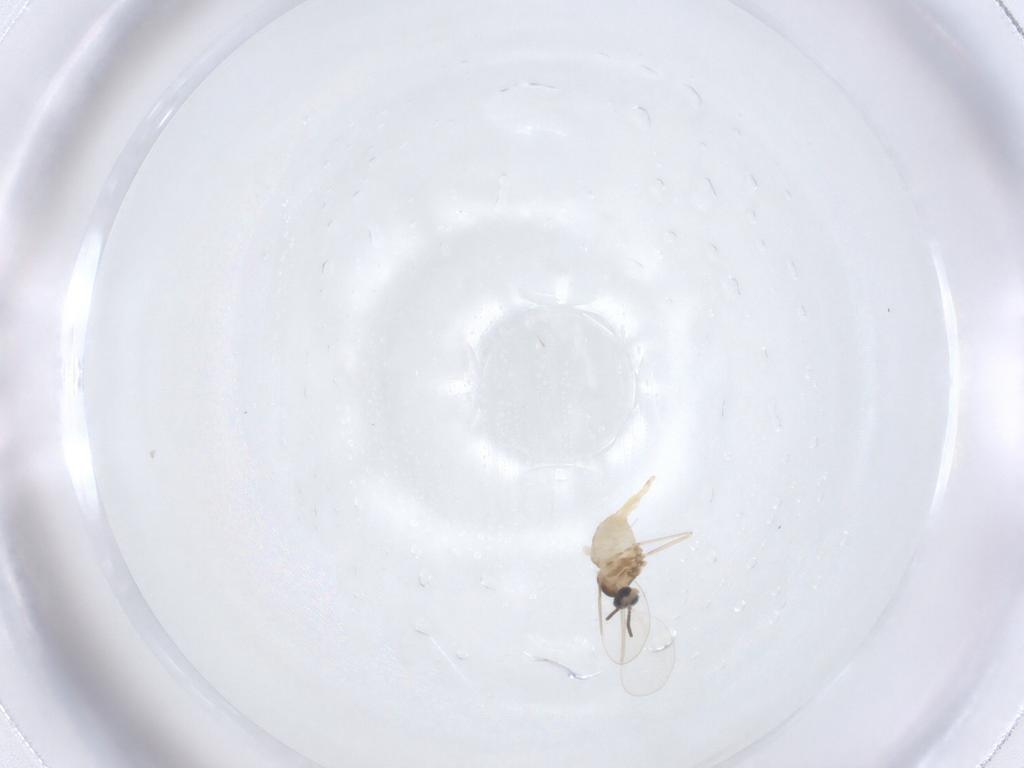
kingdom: Animalia
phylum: Arthropoda
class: Insecta
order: Diptera
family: Cecidomyiidae
